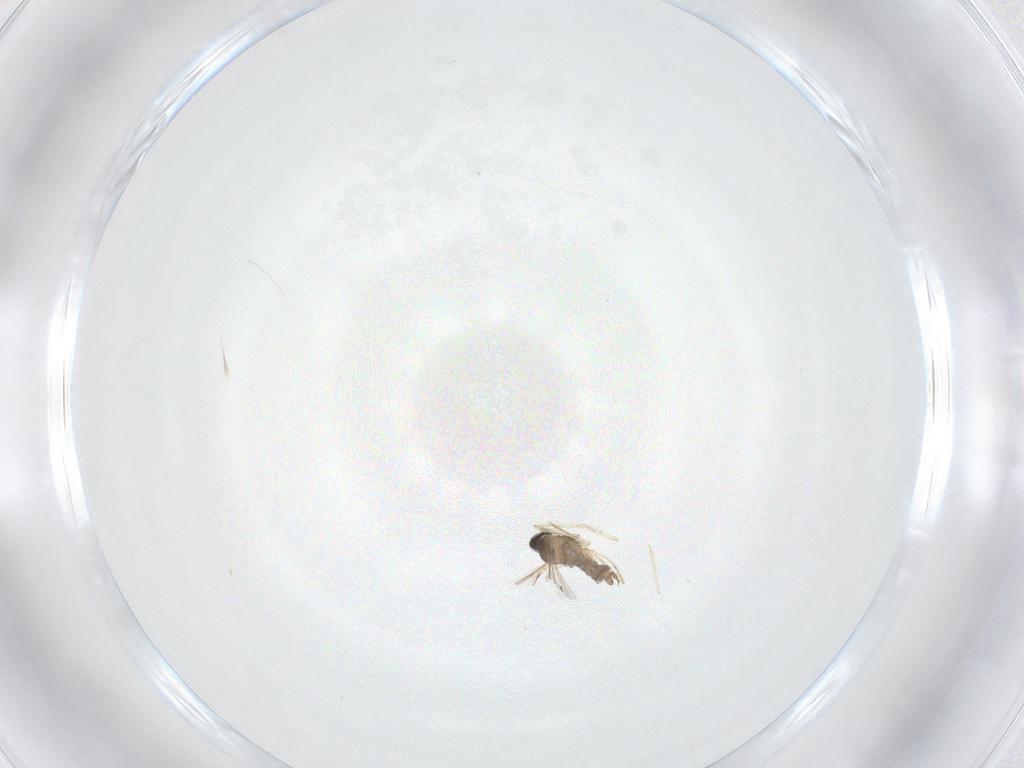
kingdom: Animalia
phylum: Arthropoda
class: Insecta
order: Diptera
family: Cecidomyiidae
